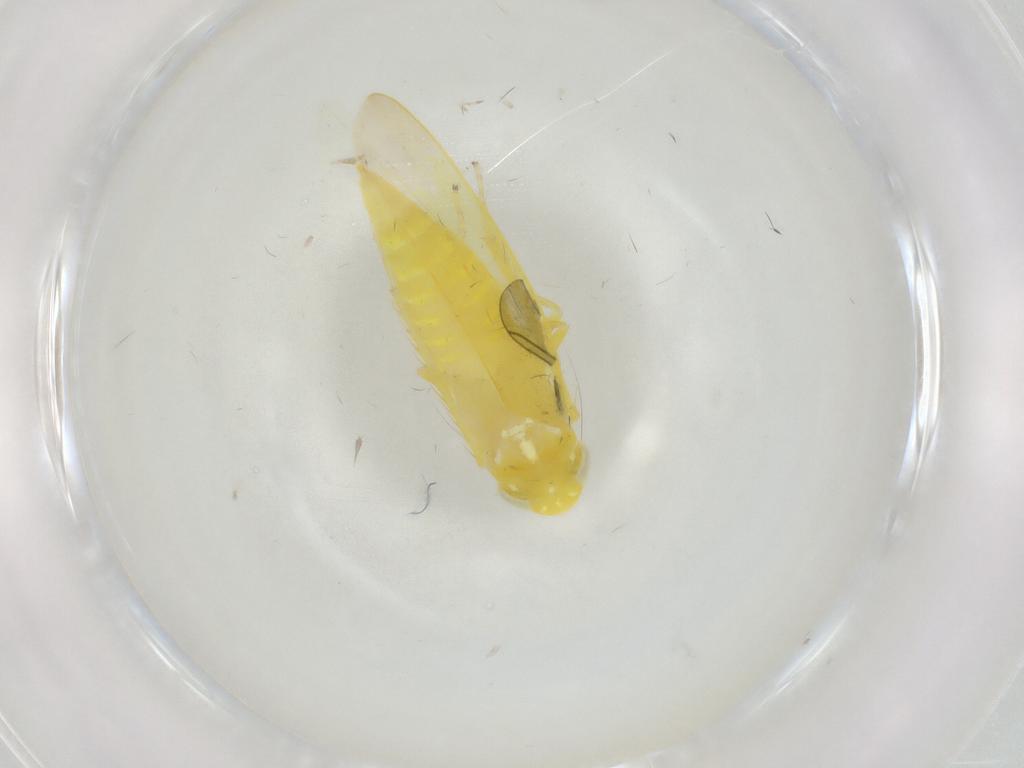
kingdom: Animalia
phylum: Arthropoda
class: Insecta
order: Hemiptera
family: Cicadellidae
